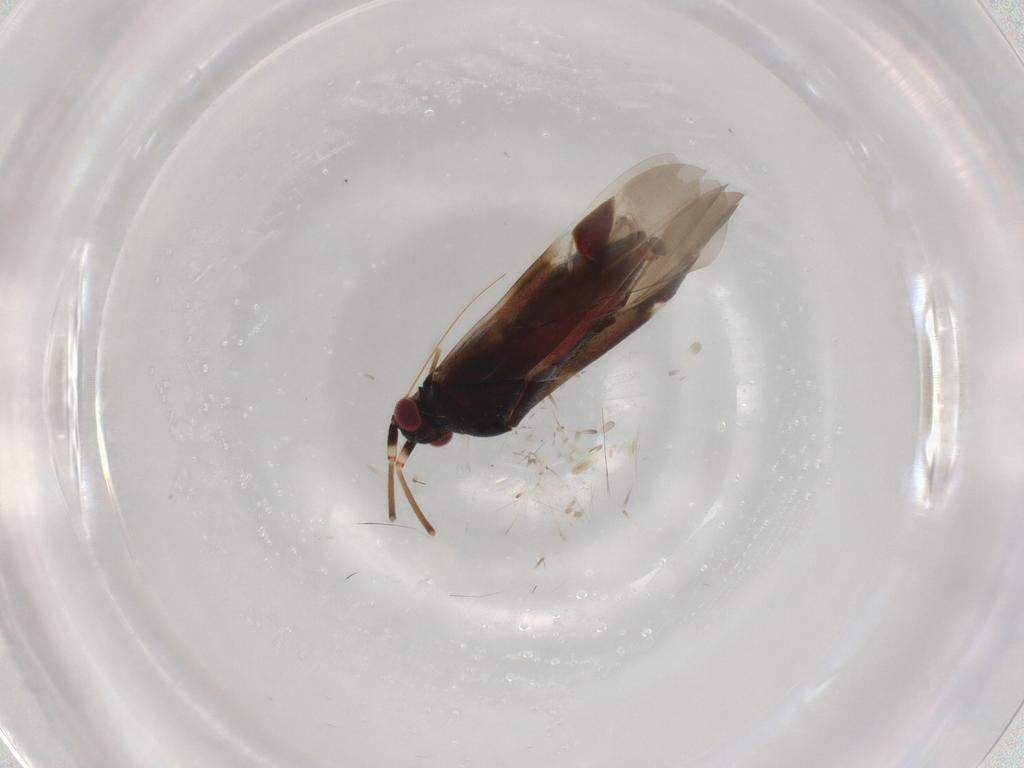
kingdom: Animalia
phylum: Arthropoda
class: Insecta
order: Hemiptera
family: Miridae
